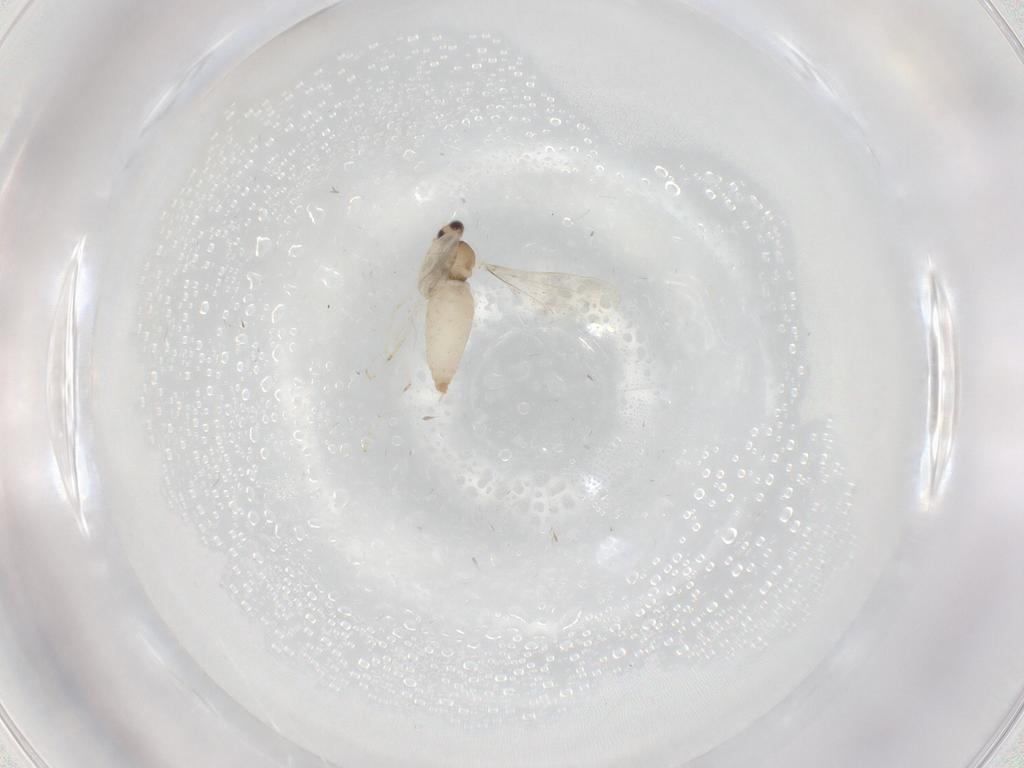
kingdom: Animalia
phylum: Arthropoda
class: Insecta
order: Diptera
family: Cecidomyiidae
